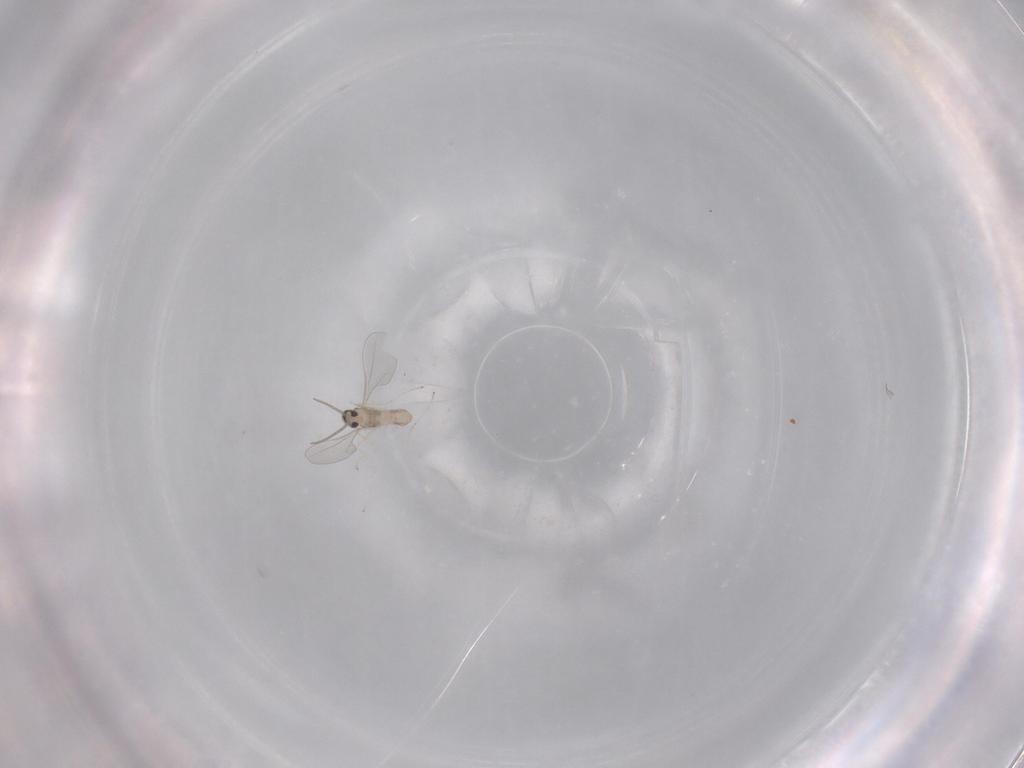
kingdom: Animalia
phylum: Arthropoda
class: Insecta
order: Diptera
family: Cecidomyiidae
